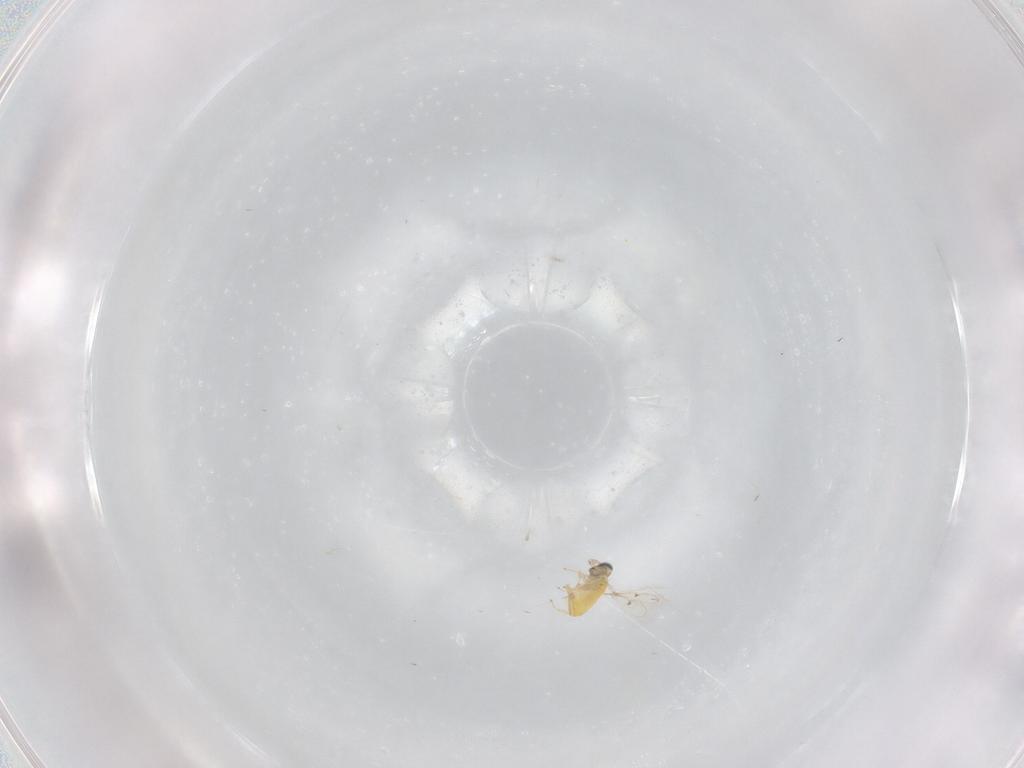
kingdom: Animalia
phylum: Arthropoda
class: Insecta
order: Hymenoptera
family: Trichogrammatidae
